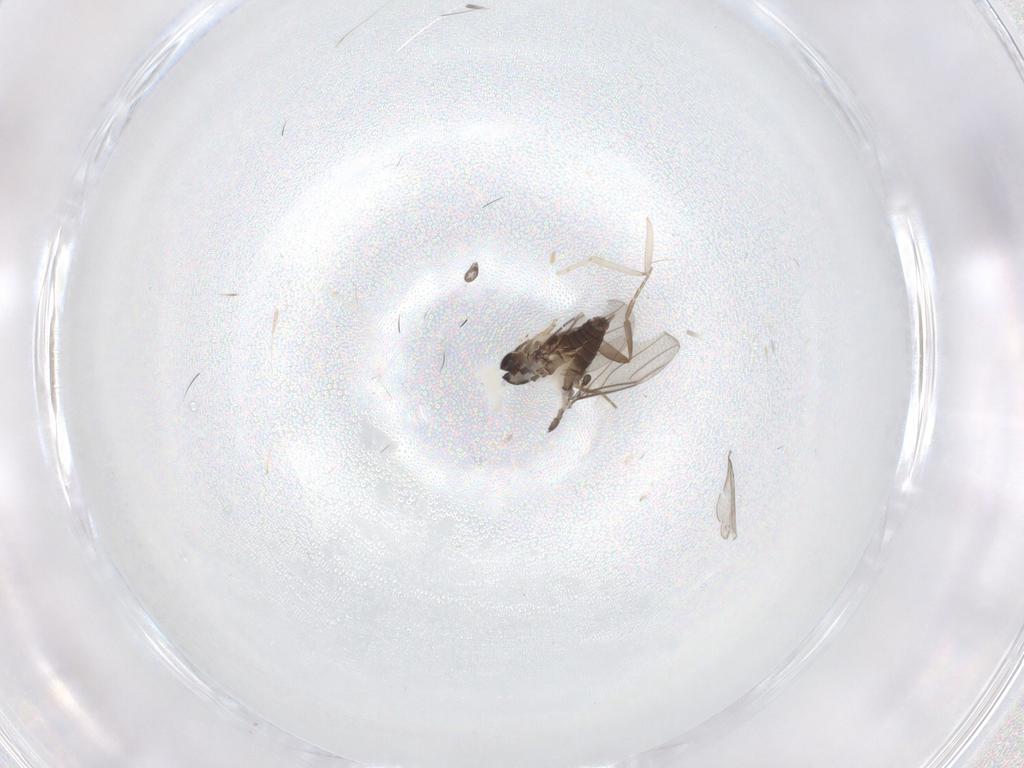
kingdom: Animalia
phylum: Arthropoda
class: Insecta
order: Diptera
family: Cecidomyiidae
